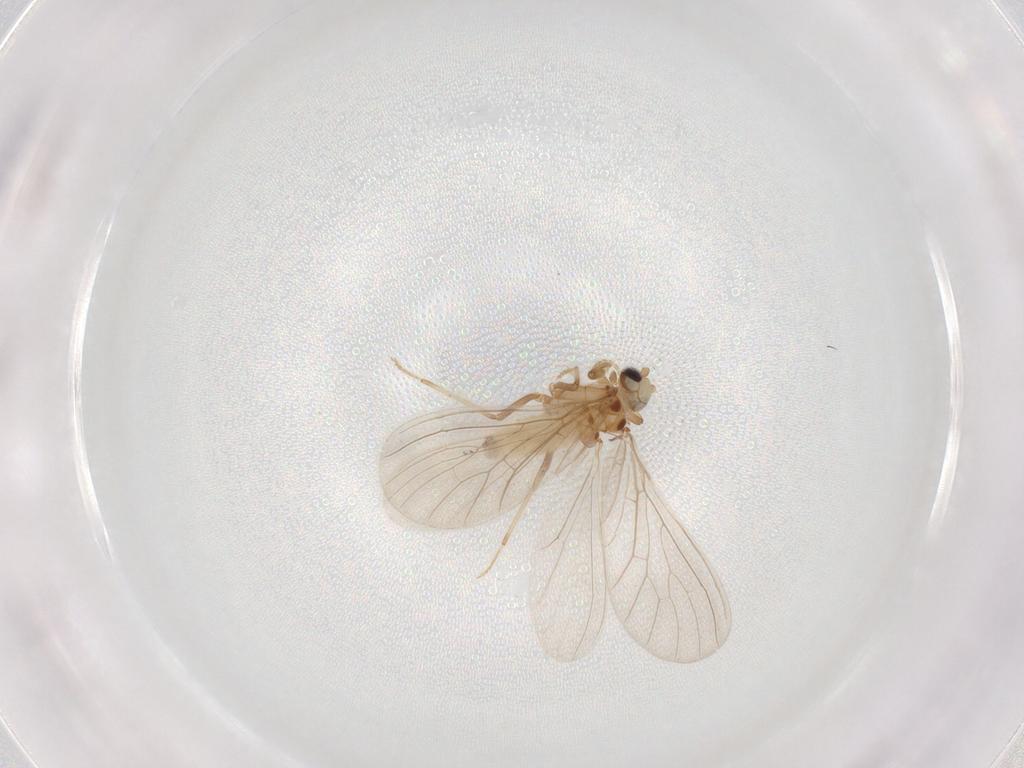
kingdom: Animalia
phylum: Arthropoda
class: Insecta
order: Neuroptera
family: Coniopterygidae
